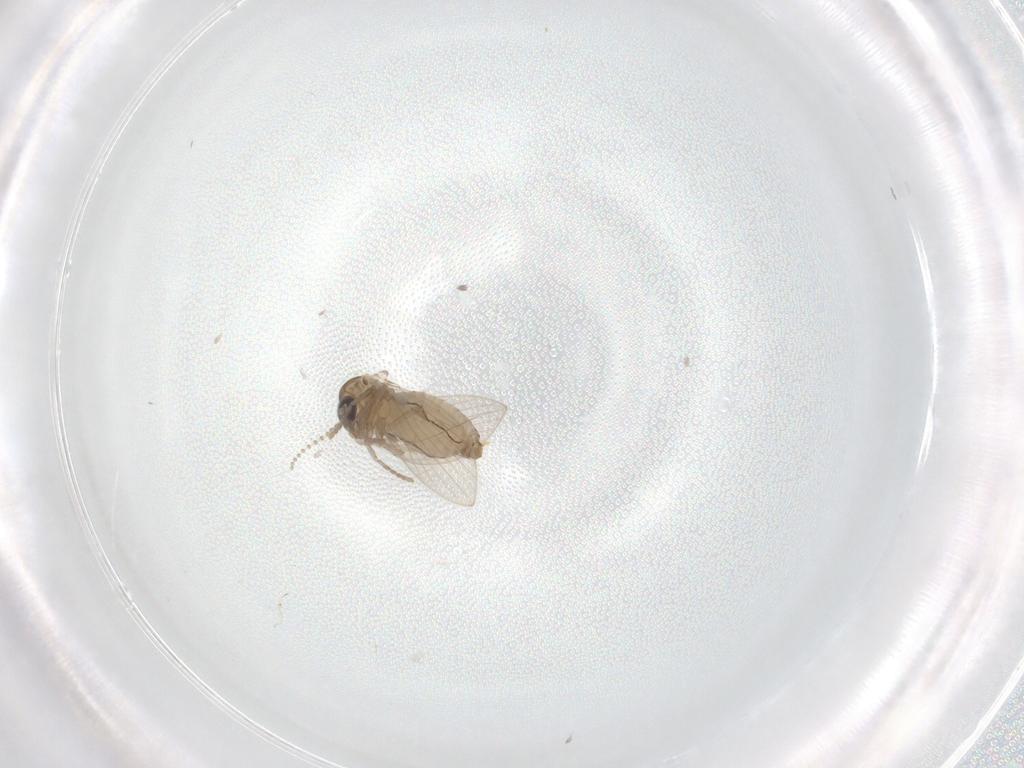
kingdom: Animalia
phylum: Arthropoda
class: Insecta
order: Diptera
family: Psychodidae
